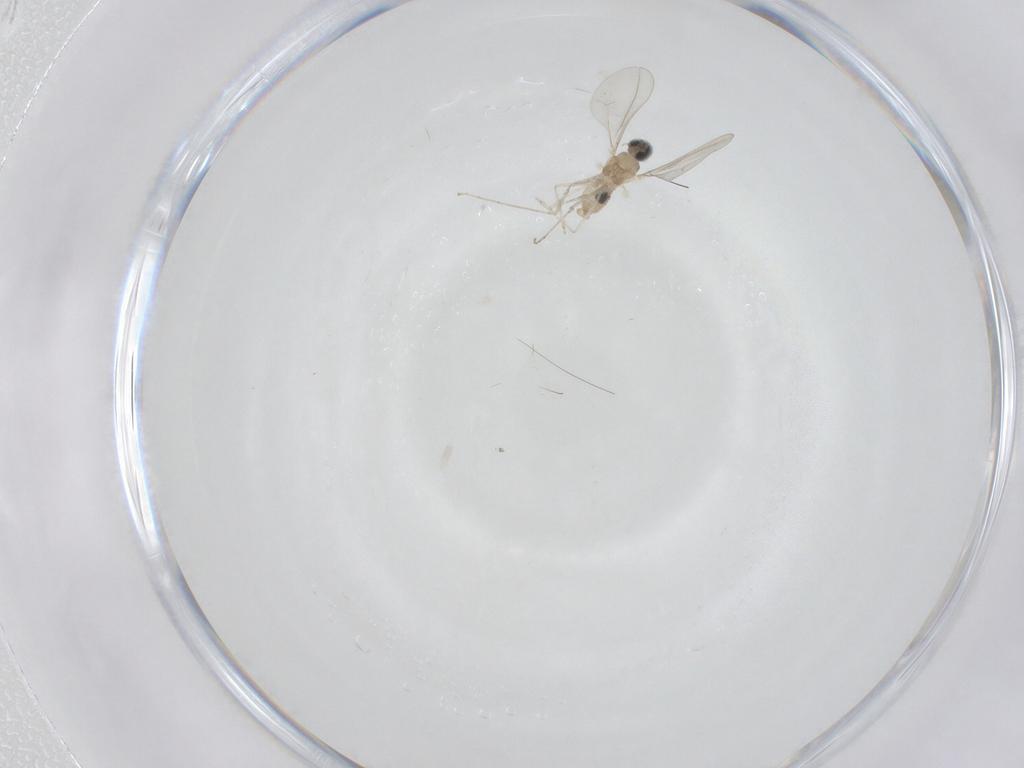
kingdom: Animalia
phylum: Arthropoda
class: Insecta
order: Diptera
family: Cecidomyiidae
